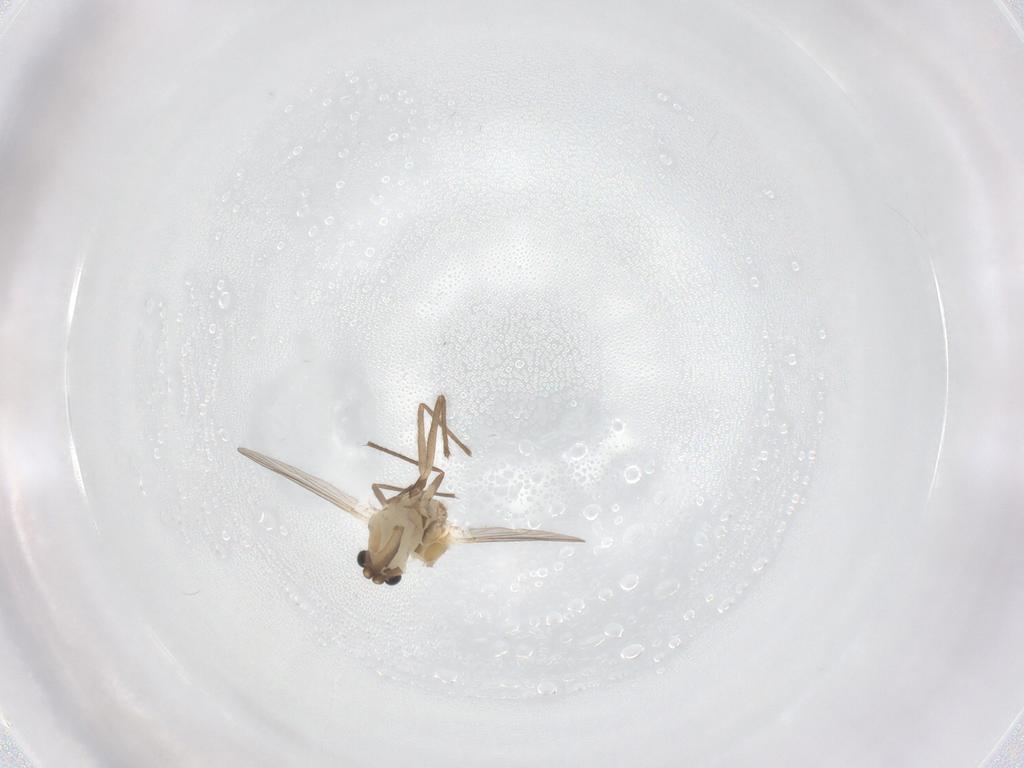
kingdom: Animalia
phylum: Arthropoda
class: Insecta
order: Diptera
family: Chironomidae
